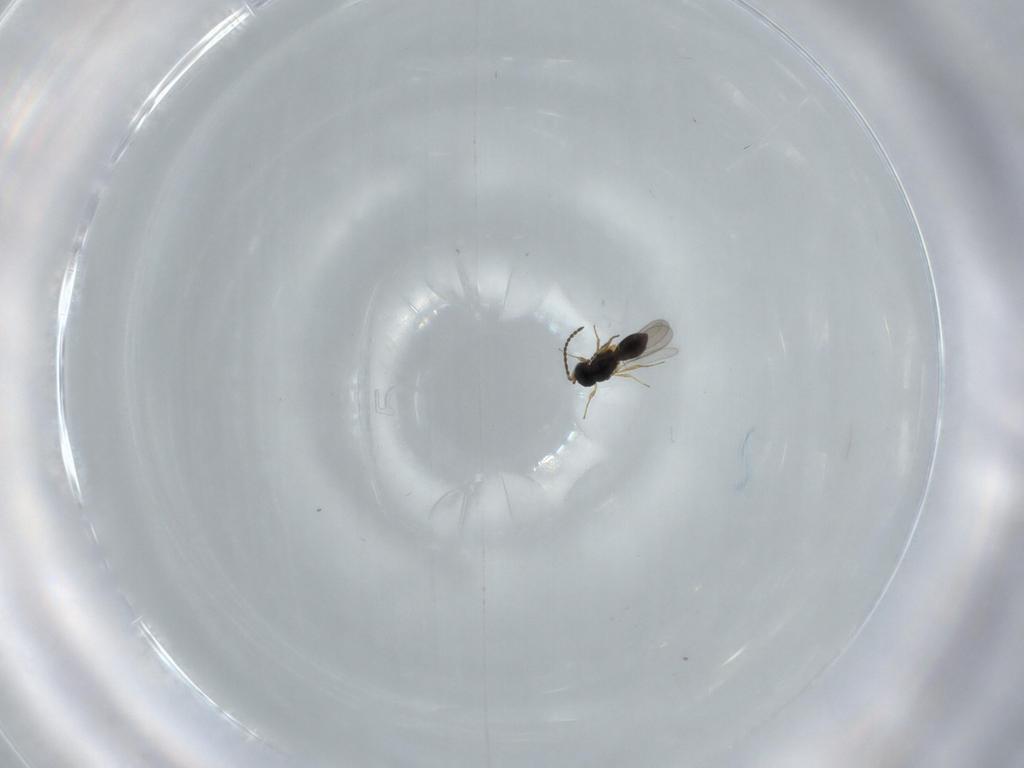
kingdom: Animalia
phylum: Arthropoda
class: Insecta
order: Hymenoptera
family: Scelionidae
